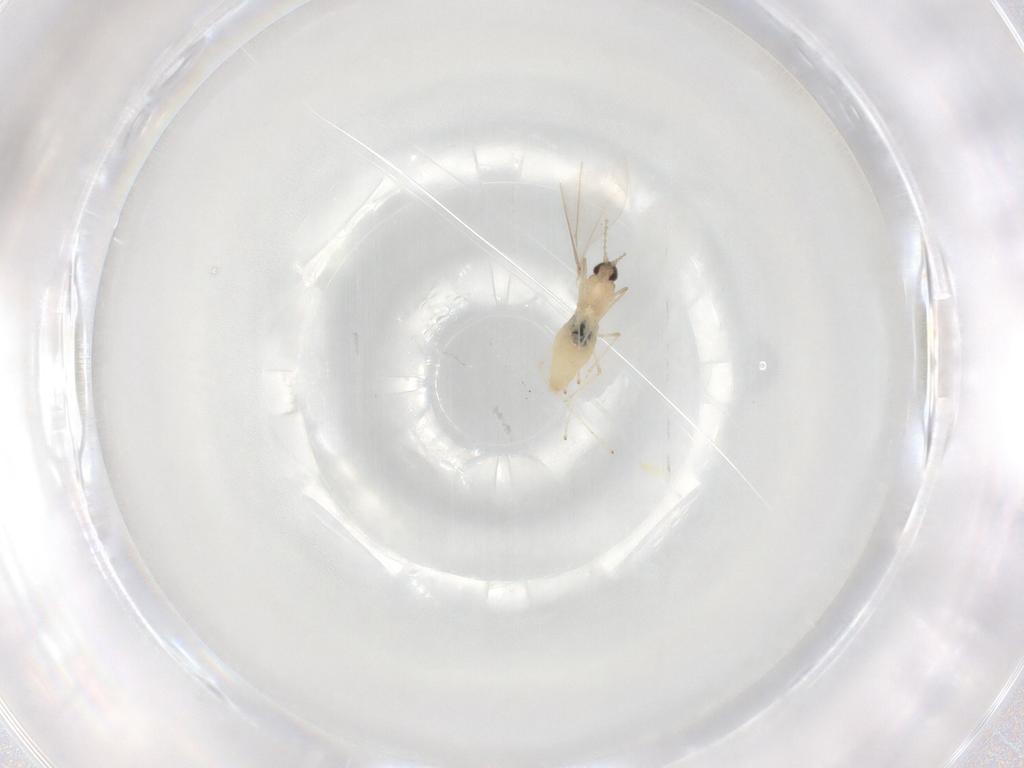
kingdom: Animalia
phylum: Arthropoda
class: Insecta
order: Diptera
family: Cecidomyiidae
